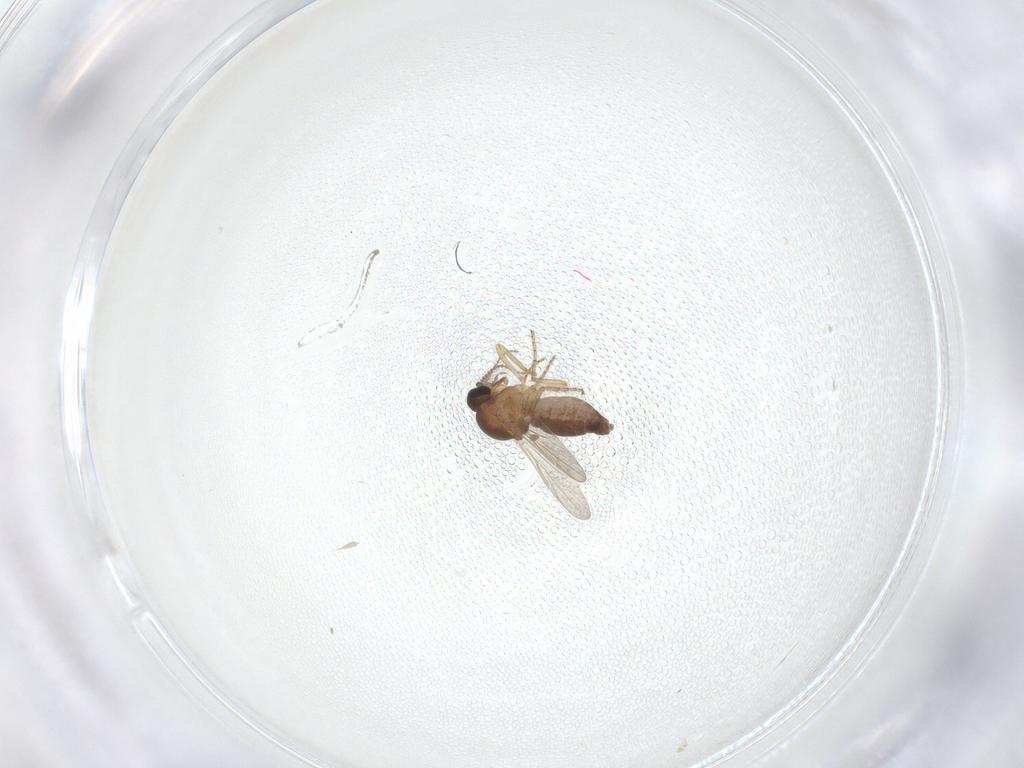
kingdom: Animalia
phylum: Arthropoda
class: Insecta
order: Diptera
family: Ceratopogonidae
